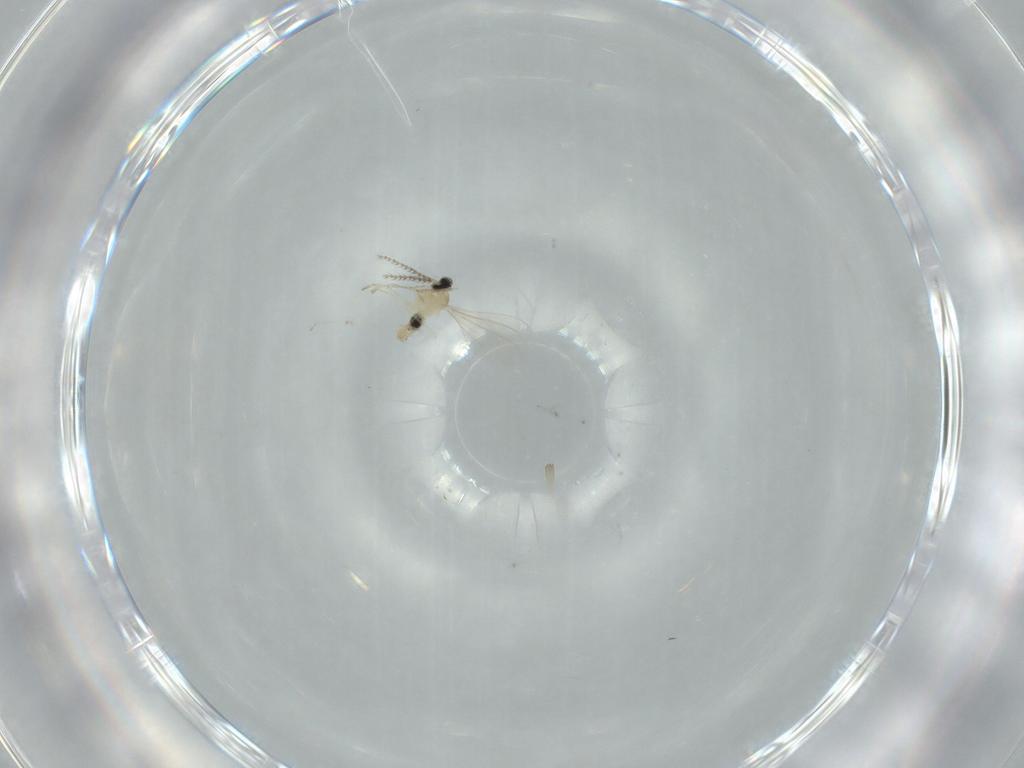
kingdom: Animalia
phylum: Arthropoda
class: Insecta
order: Diptera
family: Cecidomyiidae
